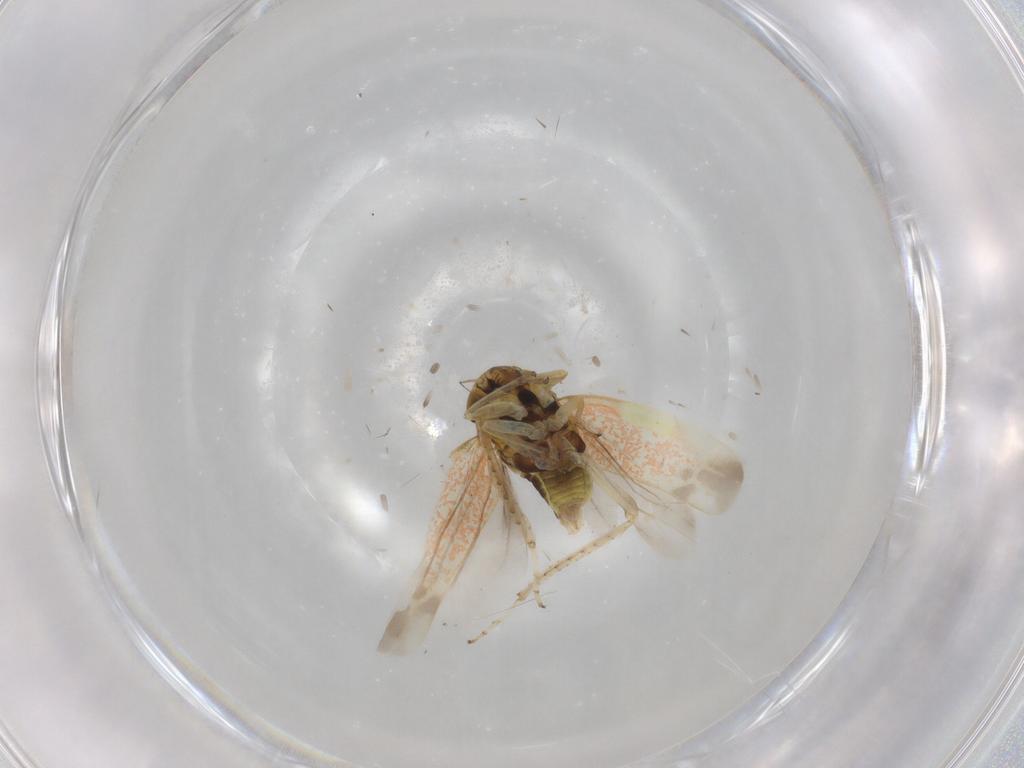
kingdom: Animalia
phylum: Arthropoda
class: Insecta
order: Hemiptera
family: Cicadellidae
